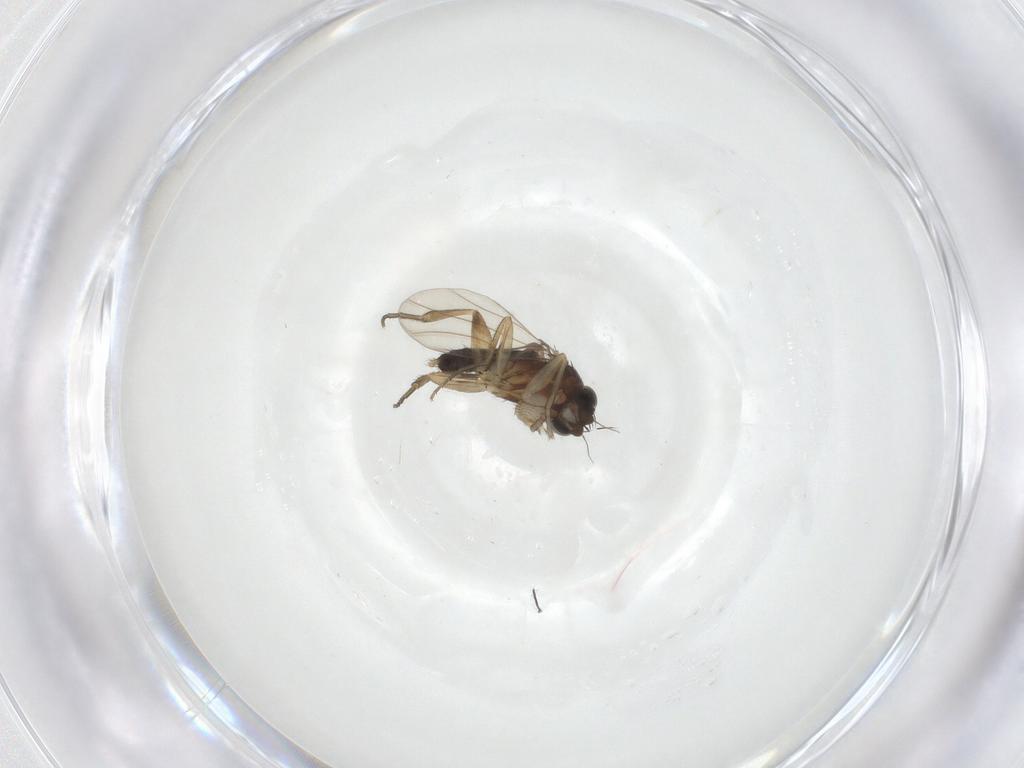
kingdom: Animalia
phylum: Arthropoda
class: Insecta
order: Diptera
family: Phoridae
